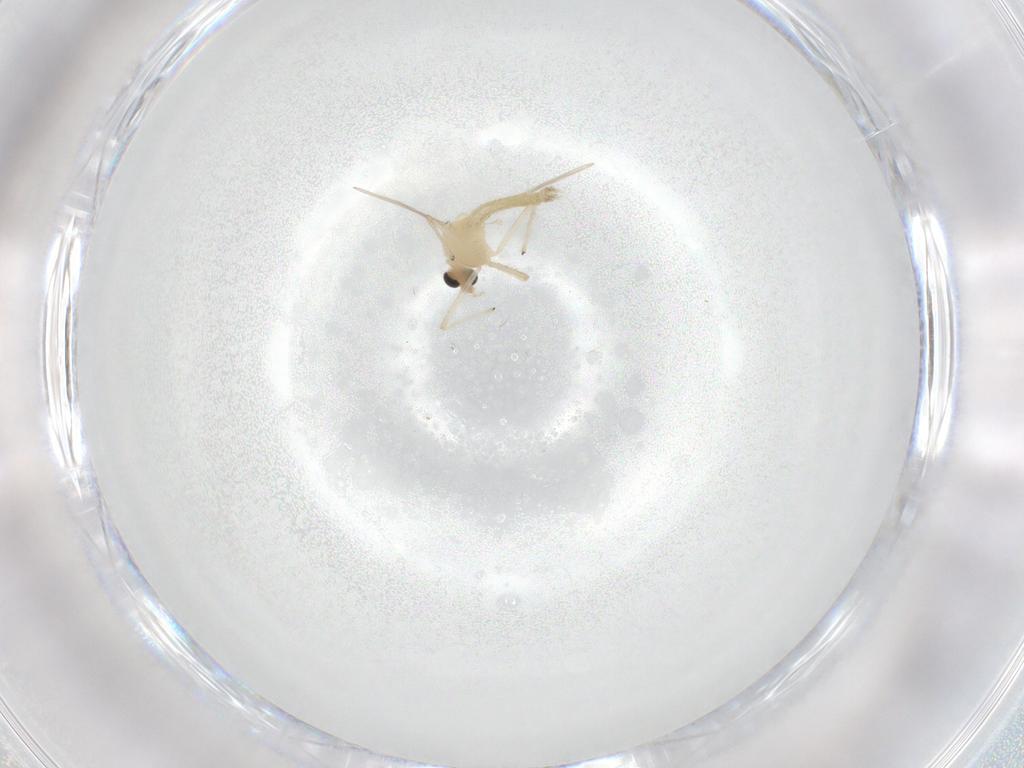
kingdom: Animalia
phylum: Arthropoda
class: Insecta
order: Diptera
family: Chironomidae
